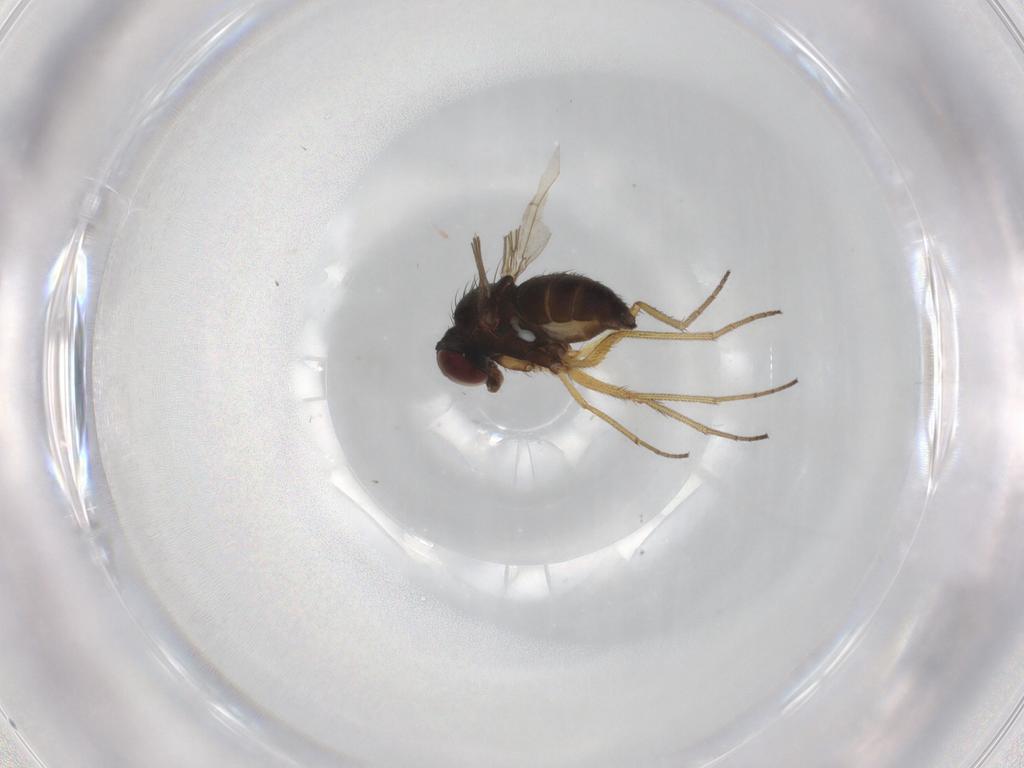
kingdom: Animalia
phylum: Arthropoda
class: Insecta
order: Diptera
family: Dolichopodidae
